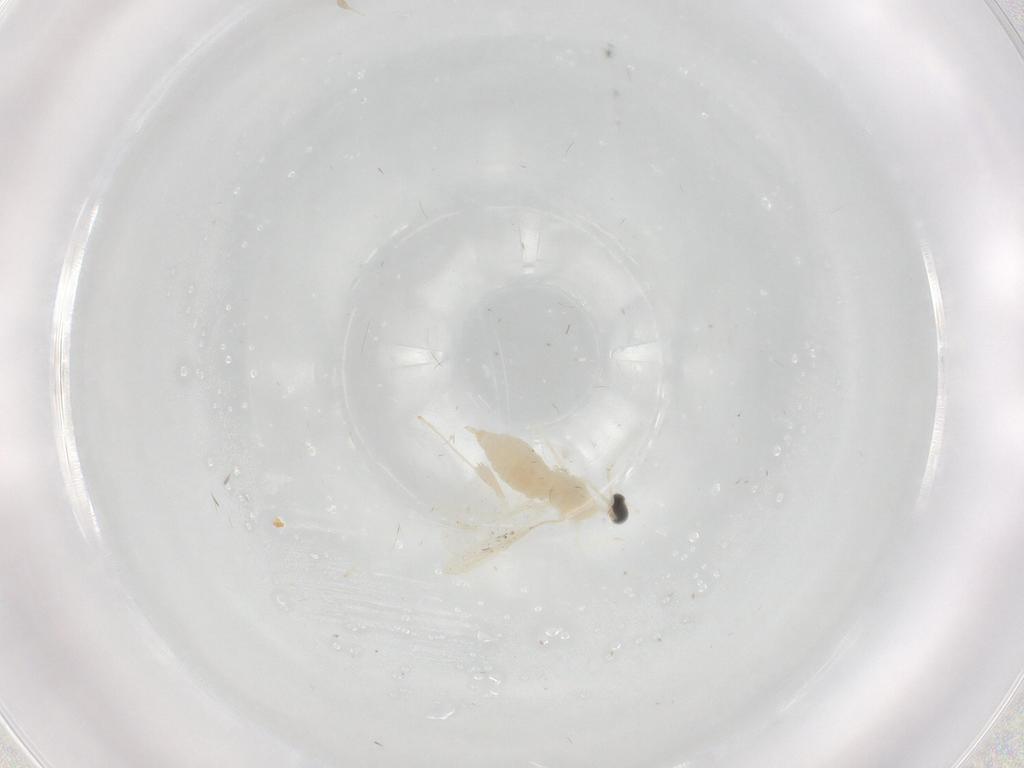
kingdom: Animalia
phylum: Arthropoda
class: Insecta
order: Diptera
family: Cecidomyiidae
